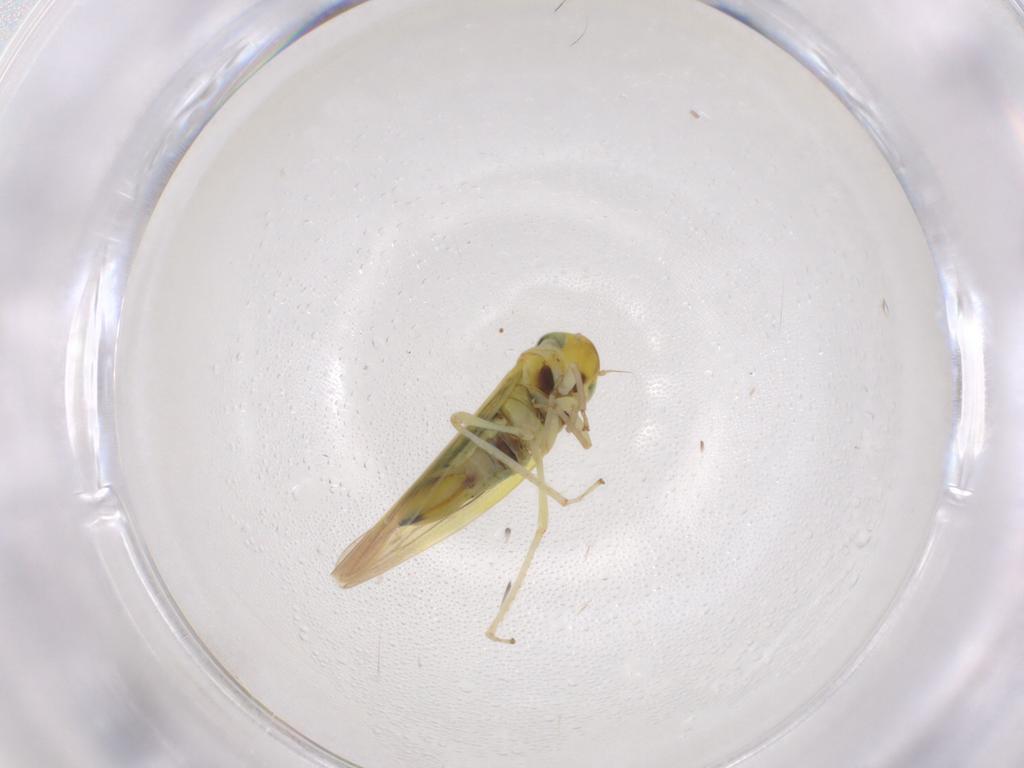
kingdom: Animalia
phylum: Arthropoda
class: Insecta
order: Hemiptera
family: Cicadellidae
